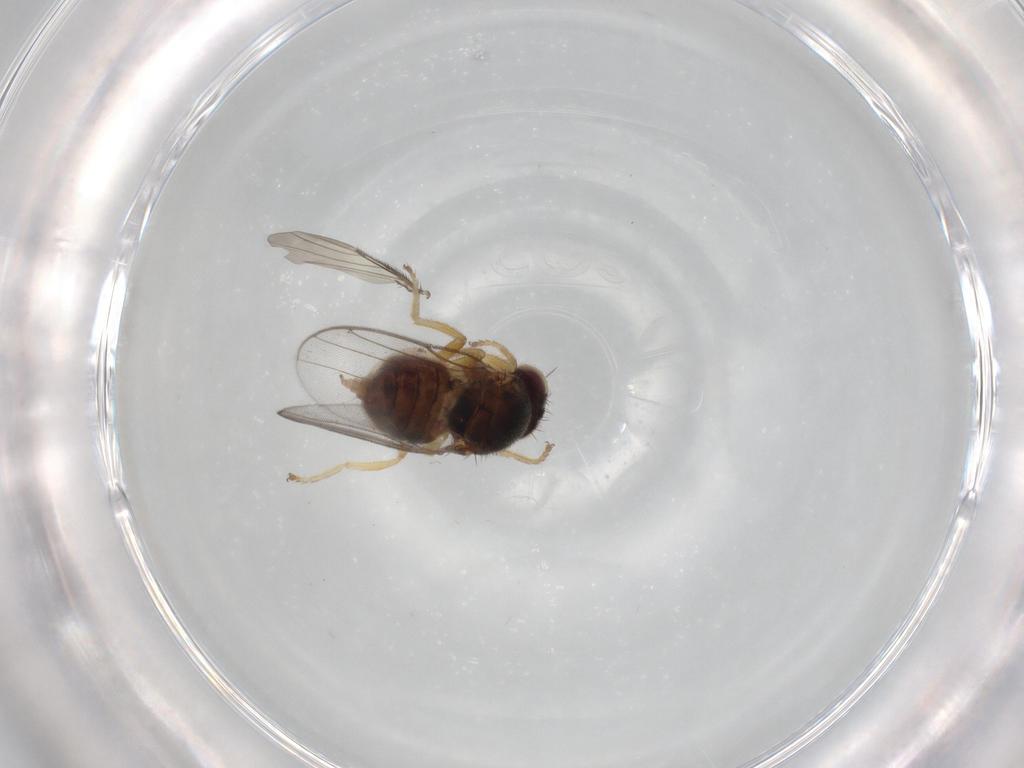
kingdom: Animalia
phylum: Arthropoda
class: Insecta
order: Diptera
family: Chloropidae
